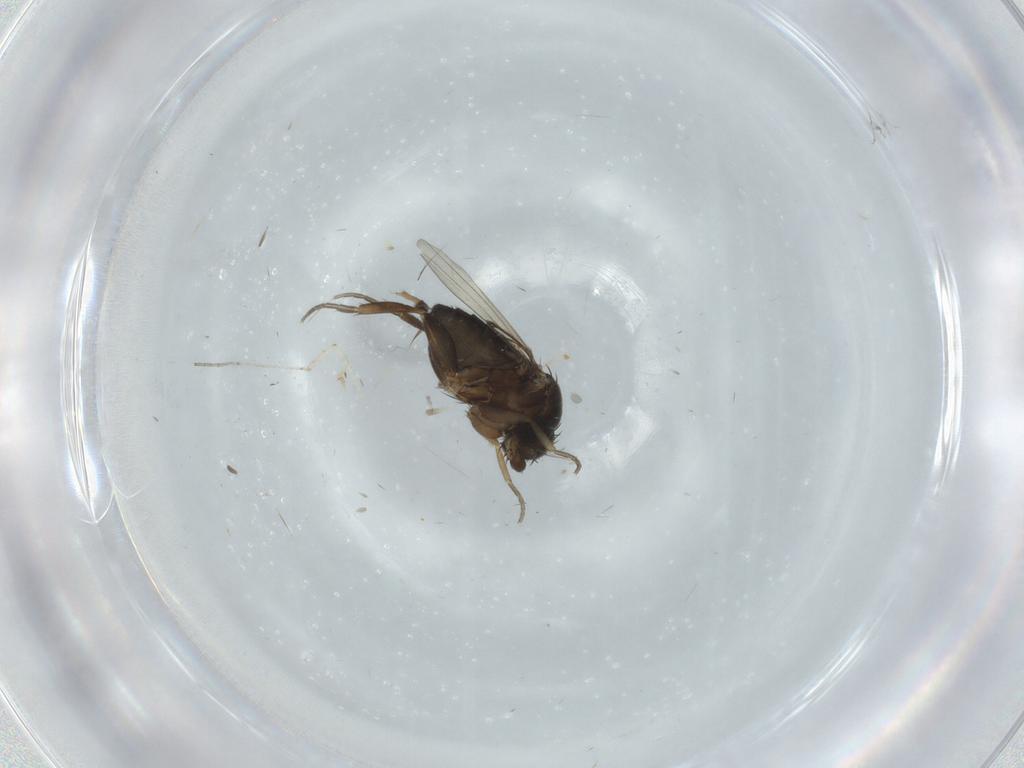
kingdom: Animalia
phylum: Arthropoda
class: Insecta
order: Diptera
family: Cecidomyiidae
